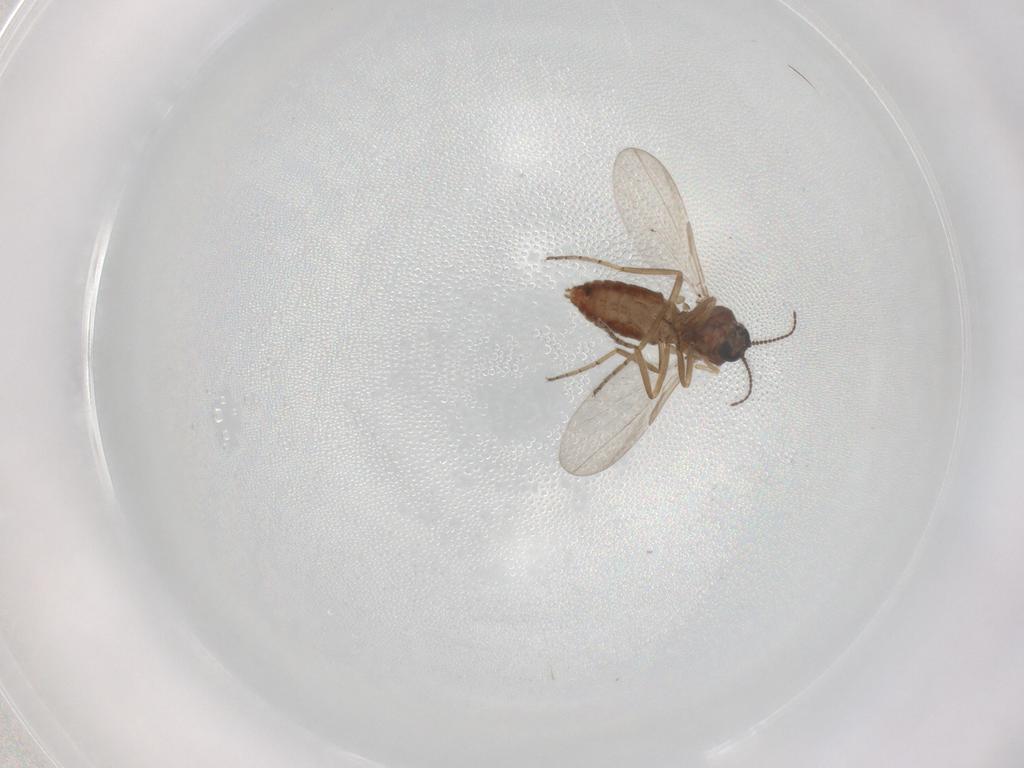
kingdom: Animalia
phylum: Arthropoda
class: Insecta
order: Diptera
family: Ceratopogonidae
